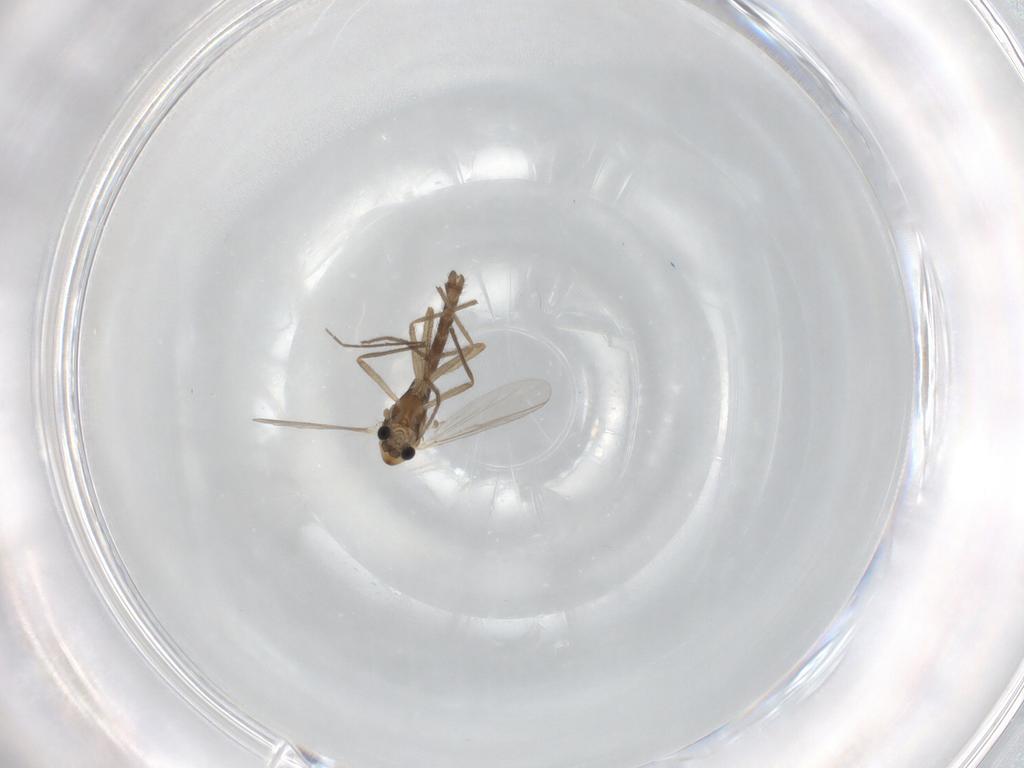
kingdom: Animalia
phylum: Arthropoda
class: Insecta
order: Diptera
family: Chironomidae
